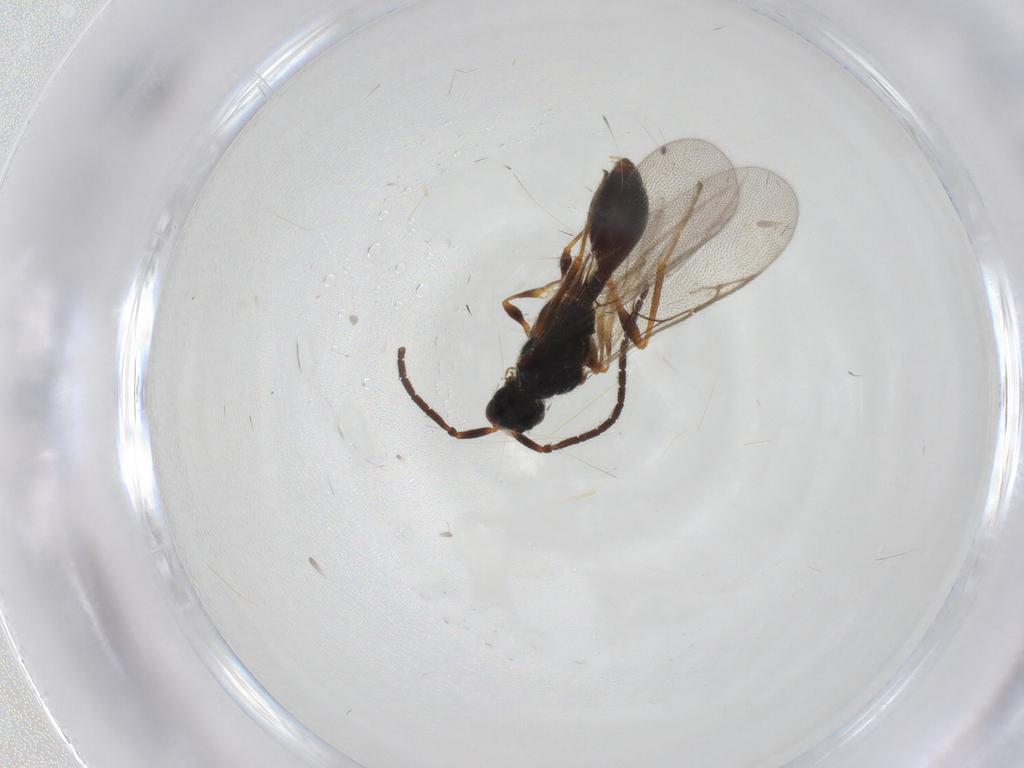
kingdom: Animalia
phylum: Arthropoda
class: Insecta
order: Hymenoptera
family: Diapriidae
